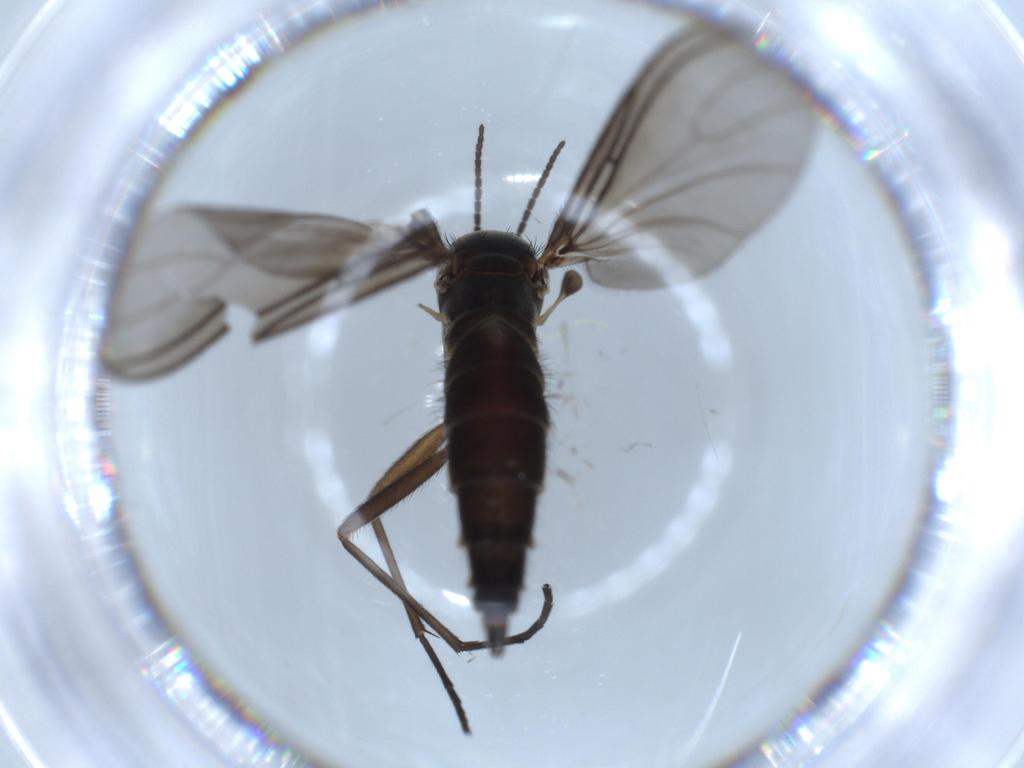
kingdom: Animalia
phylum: Arthropoda
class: Insecta
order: Diptera
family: Sciaridae
